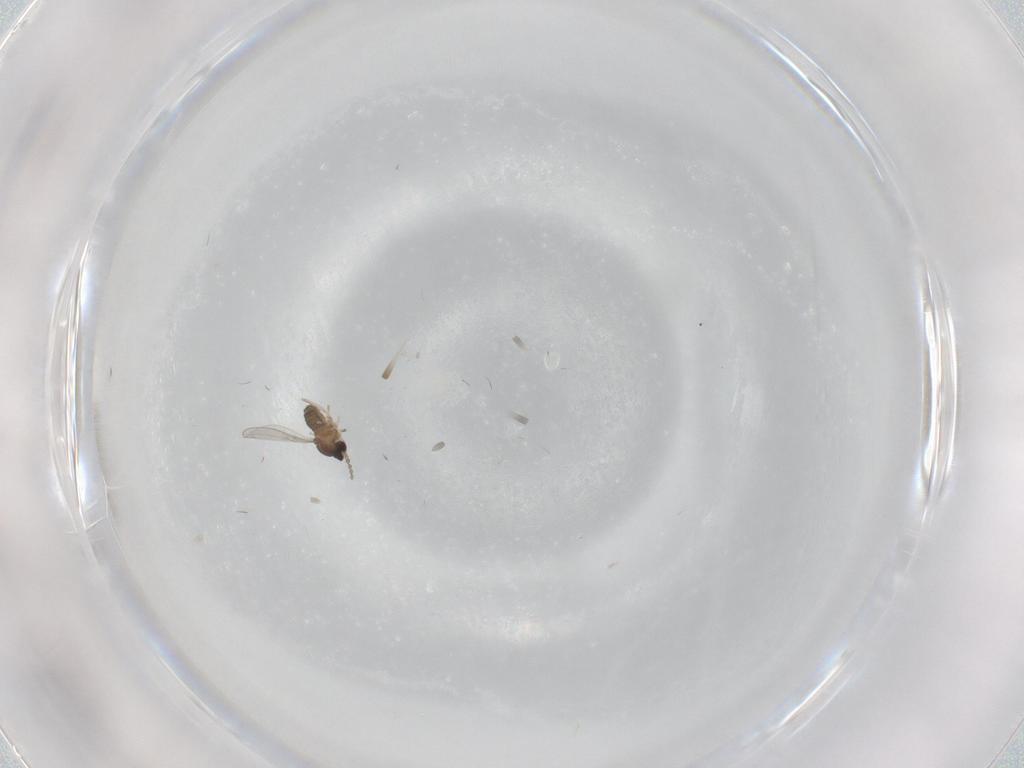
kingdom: Animalia
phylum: Arthropoda
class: Insecta
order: Diptera
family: Cecidomyiidae
